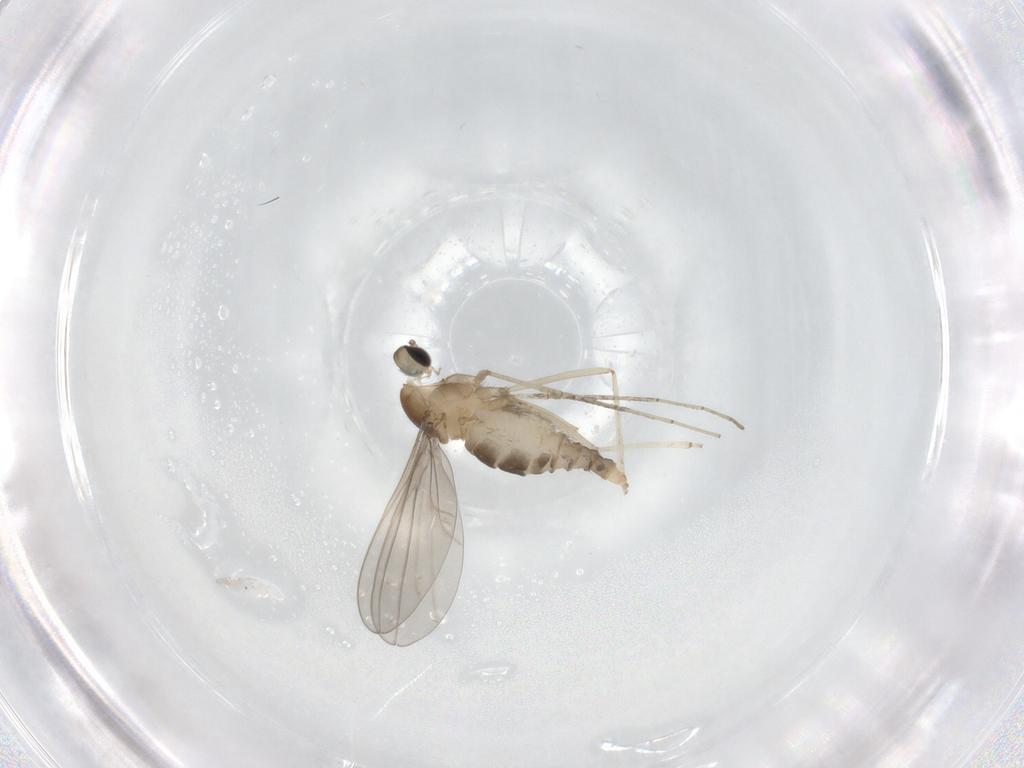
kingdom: Animalia
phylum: Arthropoda
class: Insecta
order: Diptera
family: Cecidomyiidae
